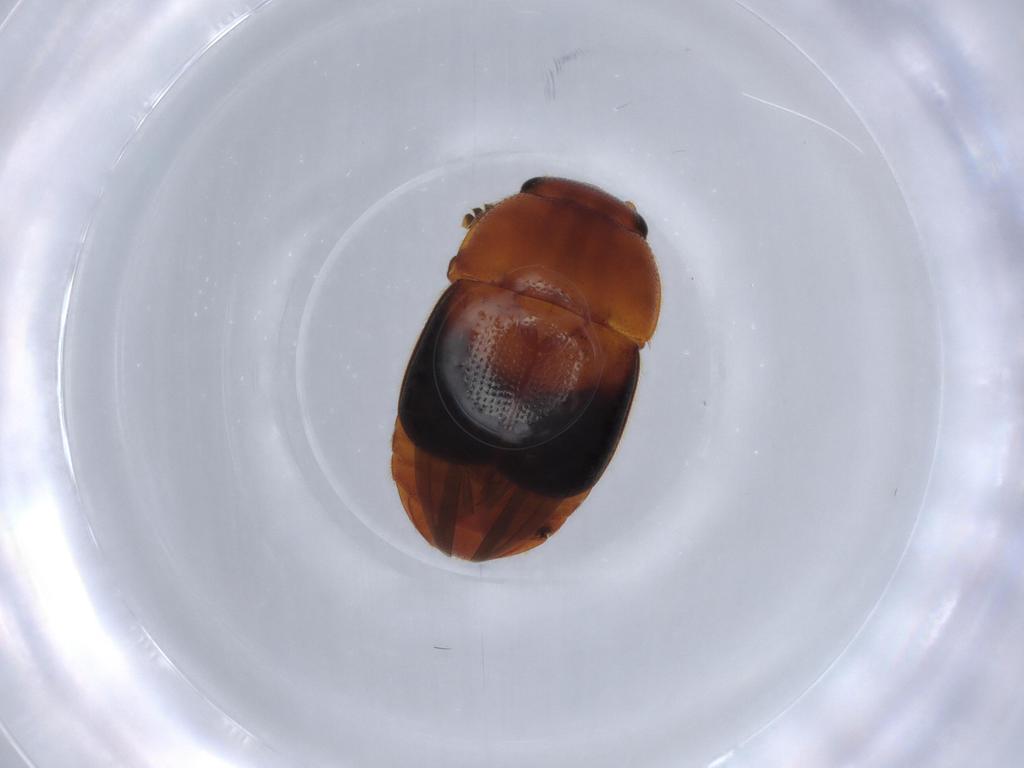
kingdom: Animalia
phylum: Arthropoda
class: Insecta
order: Coleoptera
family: Nitidulidae
